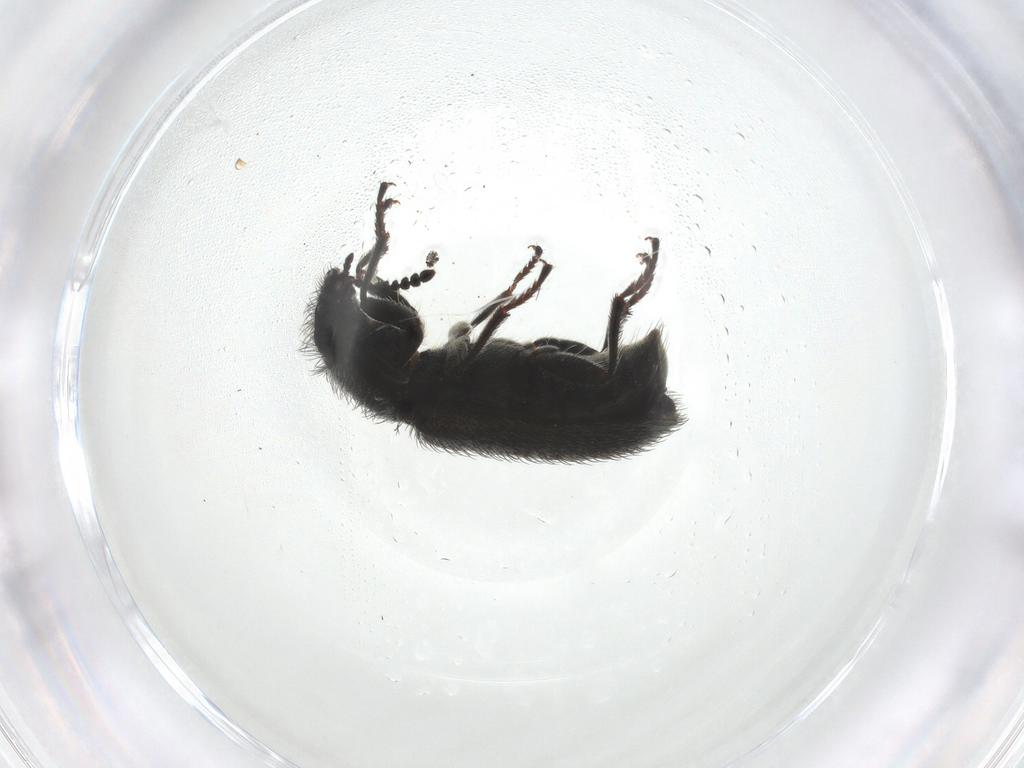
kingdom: Animalia
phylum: Arthropoda
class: Insecta
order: Coleoptera
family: Melyridae
